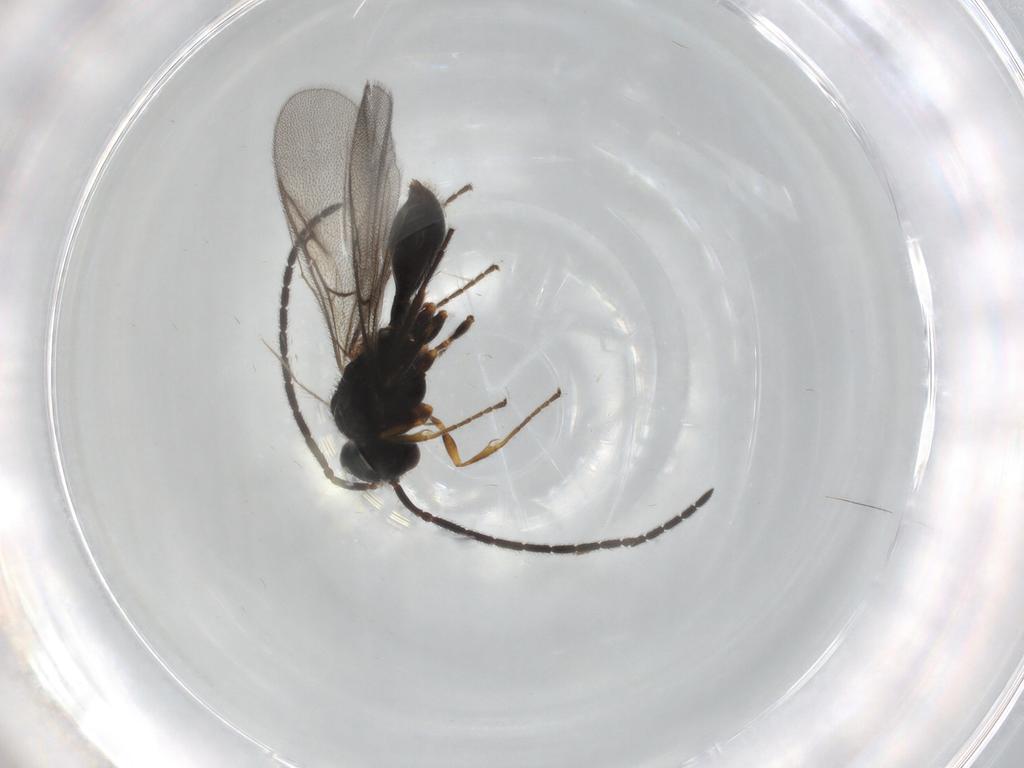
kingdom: Animalia
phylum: Arthropoda
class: Insecta
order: Hymenoptera
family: Diapriidae
